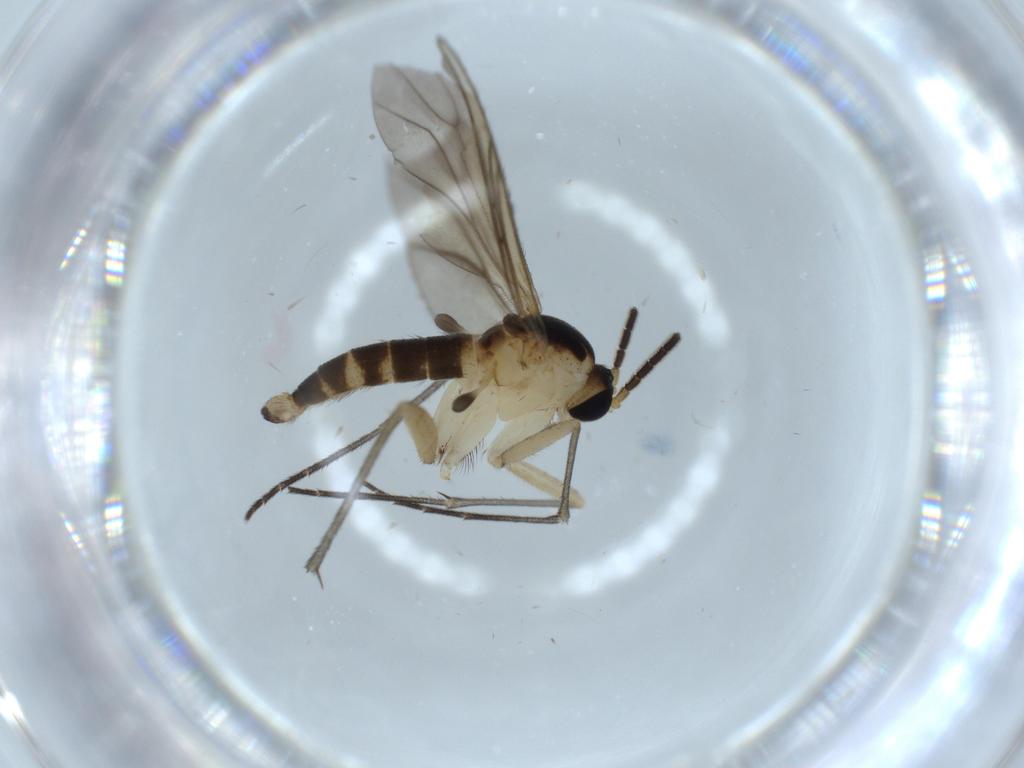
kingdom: Animalia
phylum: Arthropoda
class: Insecta
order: Diptera
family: Sciaridae
